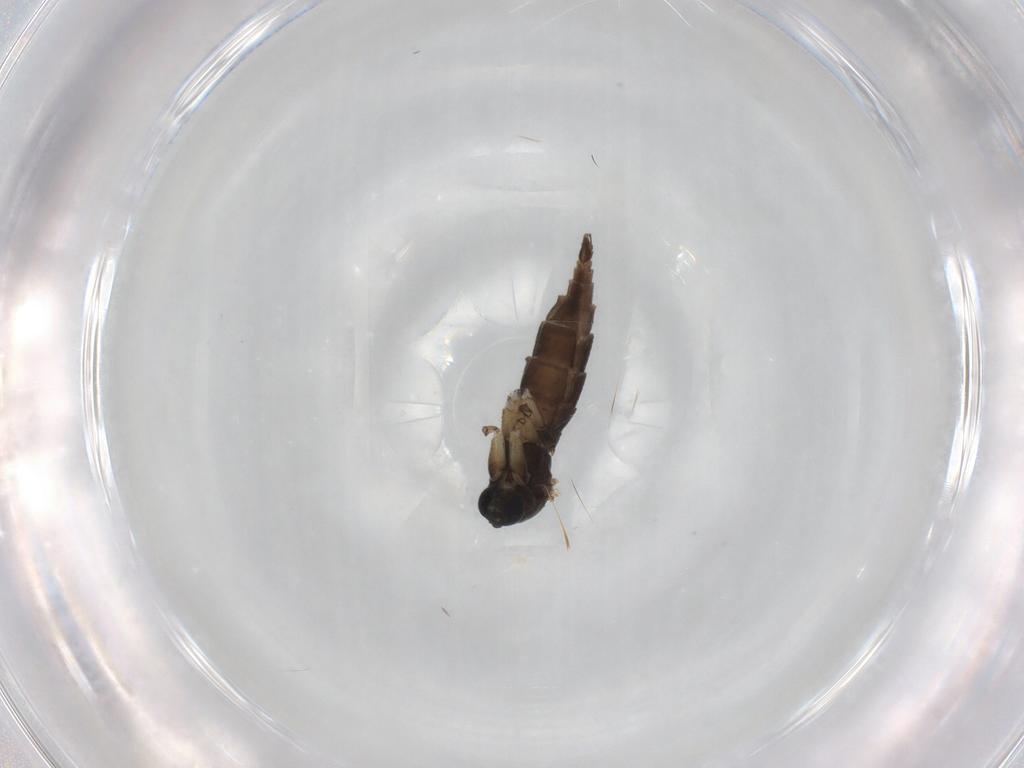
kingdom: Animalia
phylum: Arthropoda
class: Insecta
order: Diptera
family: Sciaridae
